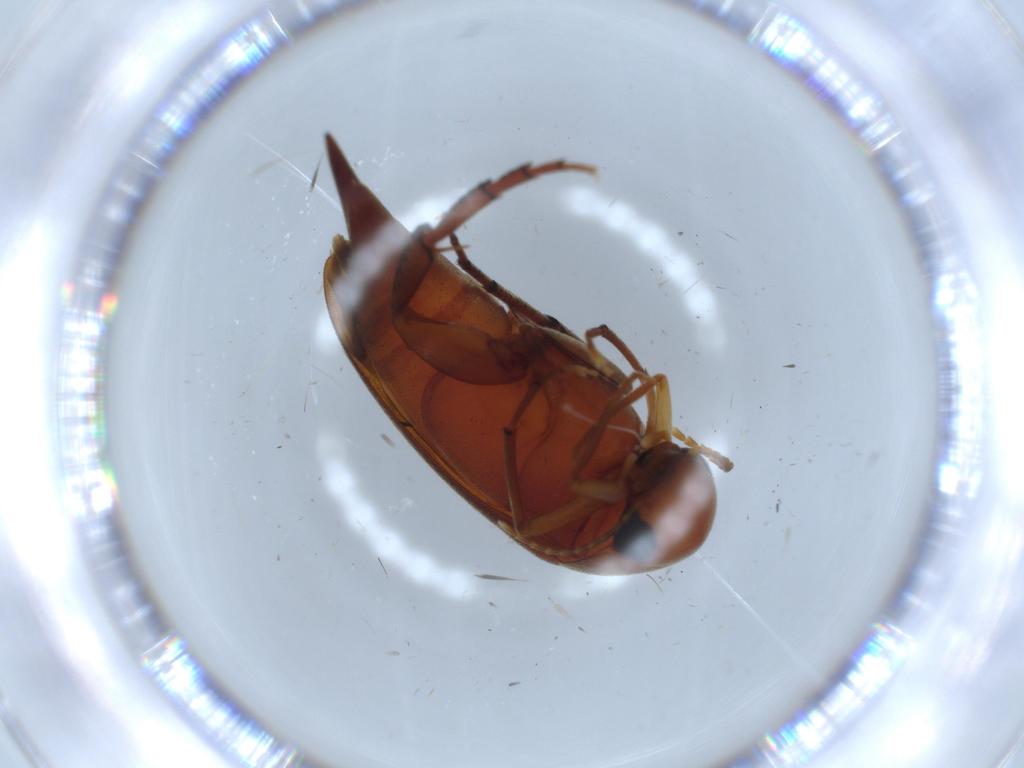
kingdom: Animalia
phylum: Arthropoda
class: Insecta
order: Coleoptera
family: Mordellidae
